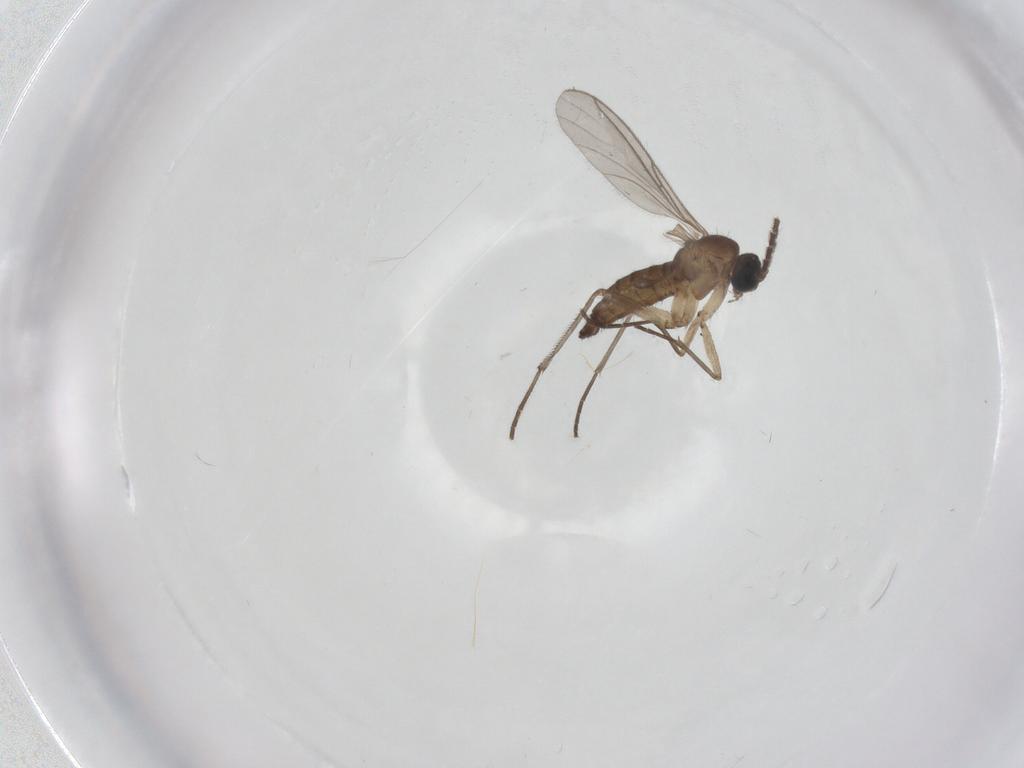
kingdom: Animalia
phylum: Arthropoda
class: Insecta
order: Diptera
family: Sciaridae
